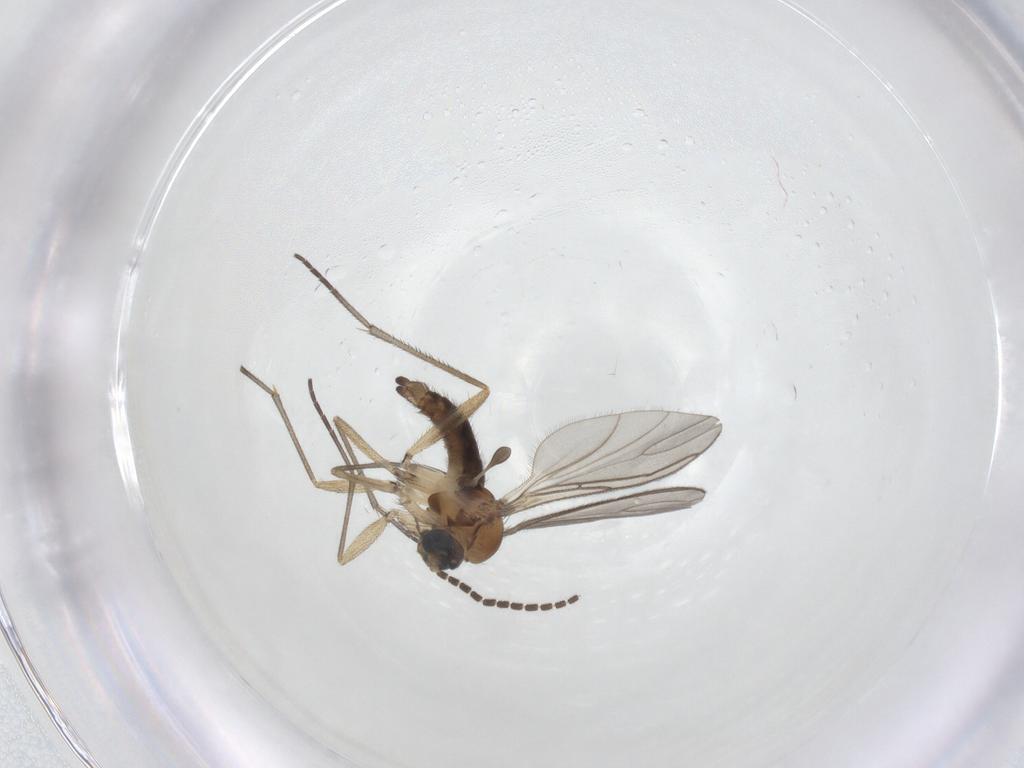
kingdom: Animalia
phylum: Arthropoda
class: Insecta
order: Diptera
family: Sciaridae
